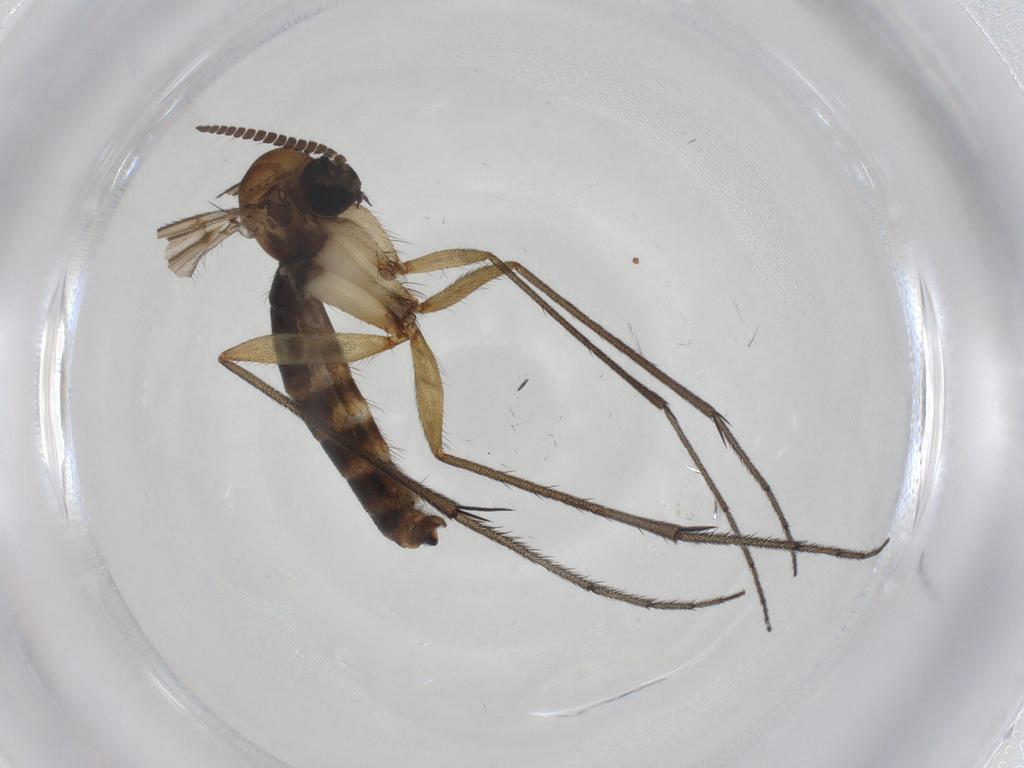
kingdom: Animalia
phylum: Arthropoda
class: Insecta
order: Diptera
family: Ditomyiidae
